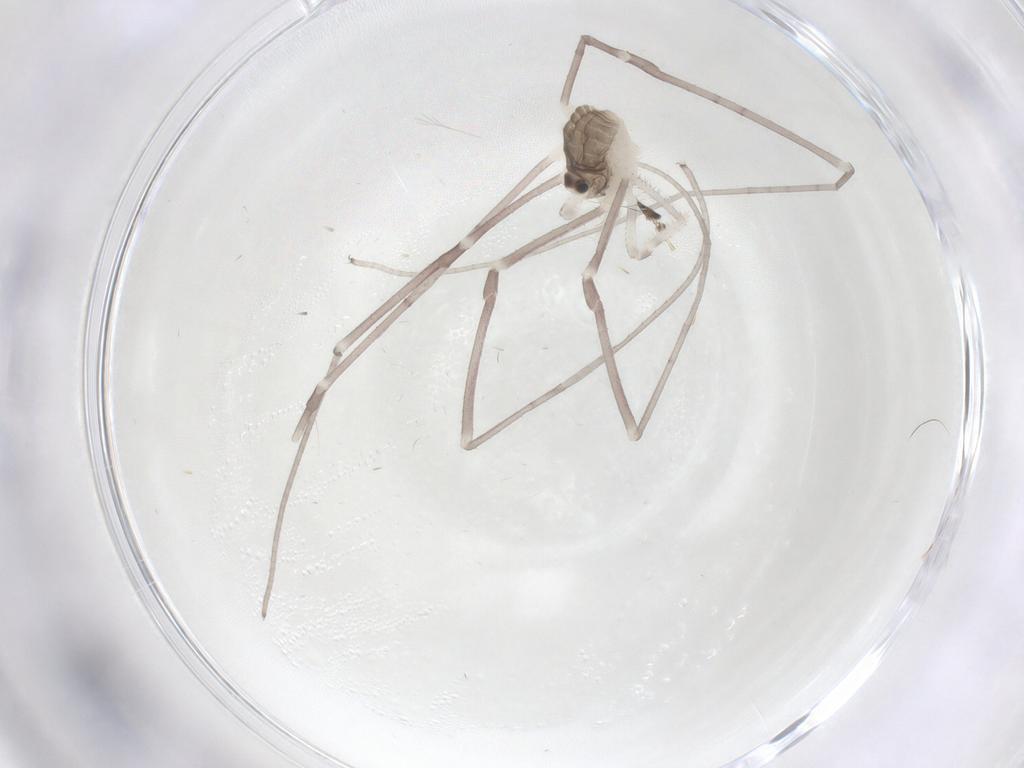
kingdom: Animalia
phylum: Arthropoda
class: Arachnida
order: Opiliones
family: Sclerosomatidae
